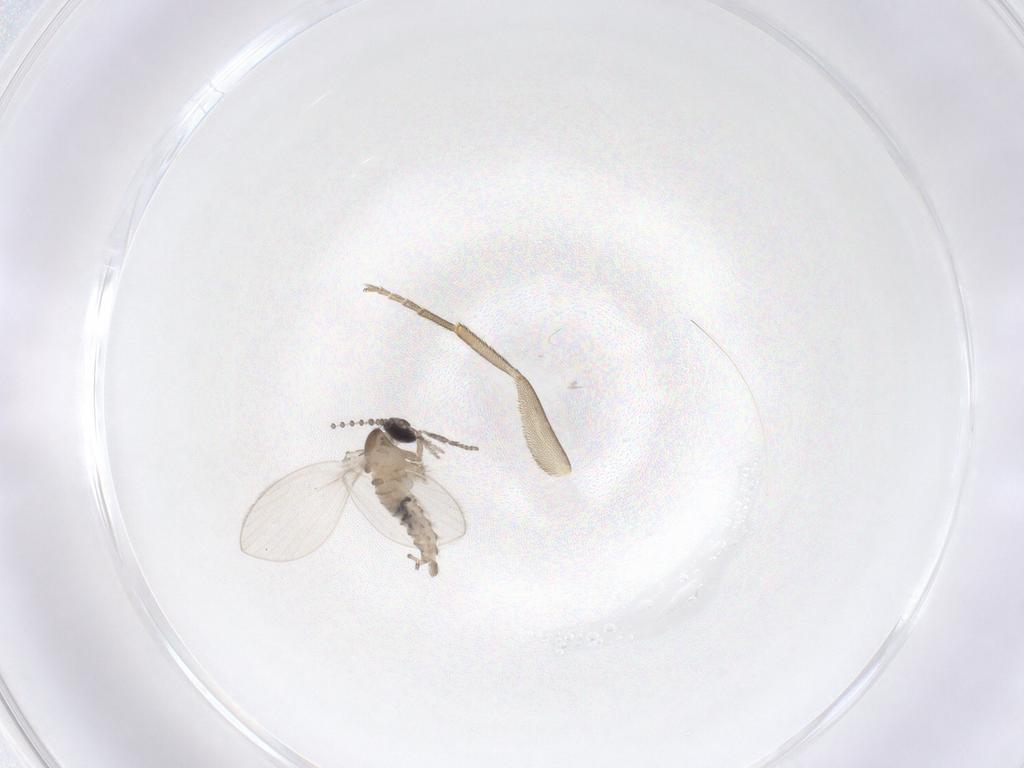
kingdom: Animalia
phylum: Arthropoda
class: Insecta
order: Diptera
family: Psychodidae
